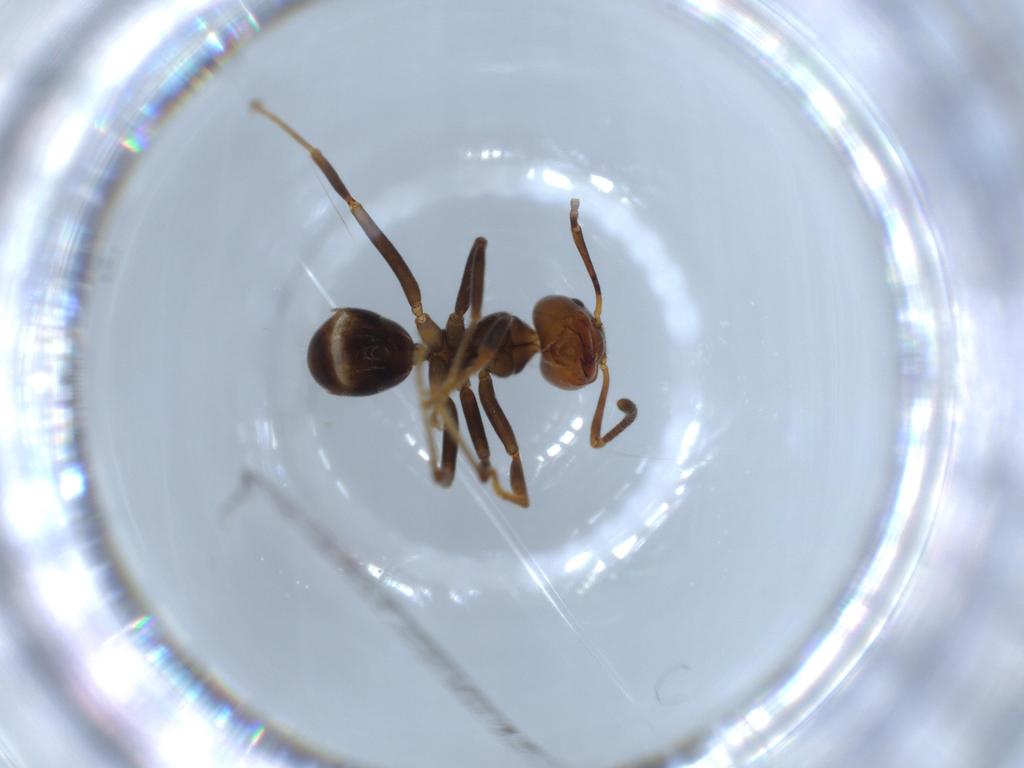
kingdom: Animalia
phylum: Arthropoda
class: Insecta
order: Hymenoptera
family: Formicidae
